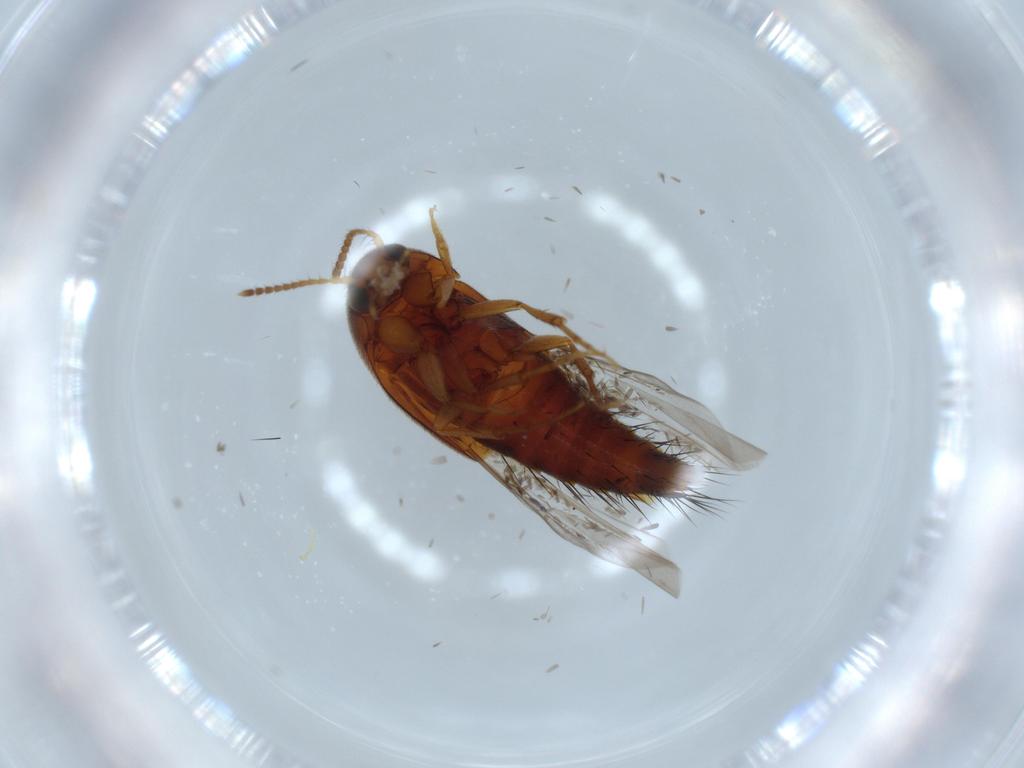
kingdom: Animalia
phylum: Arthropoda
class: Insecta
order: Coleoptera
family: Staphylinidae
